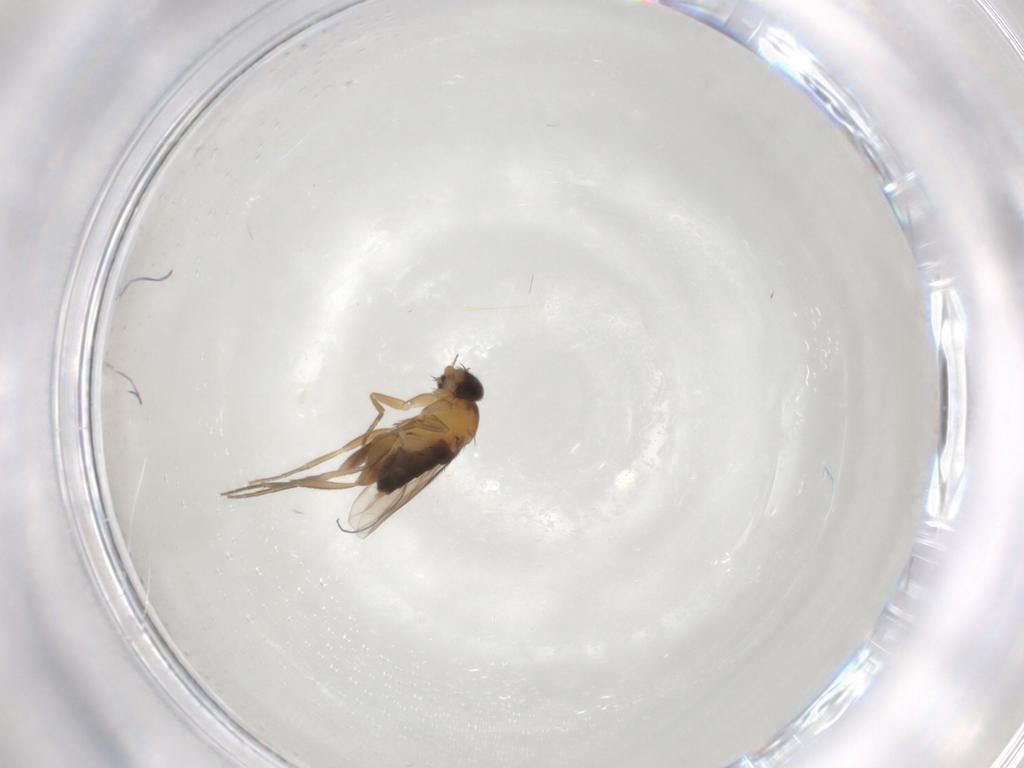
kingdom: Animalia
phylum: Arthropoda
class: Insecta
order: Diptera
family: Phoridae
